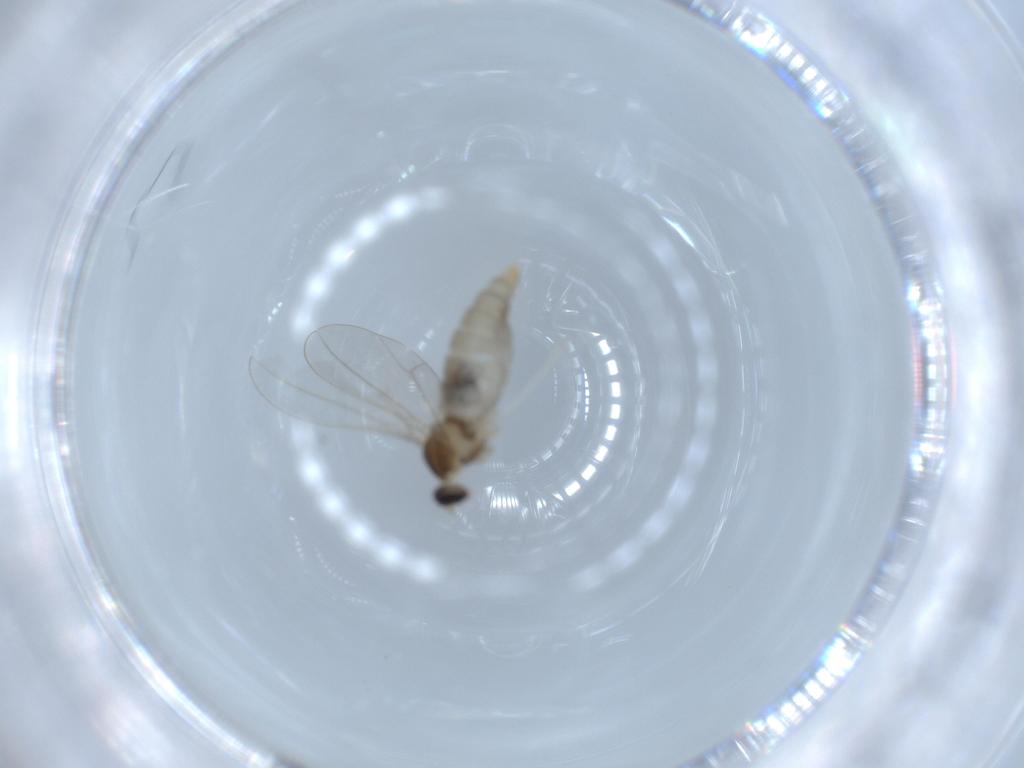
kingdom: Animalia
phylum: Arthropoda
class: Insecta
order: Diptera
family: Cecidomyiidae
